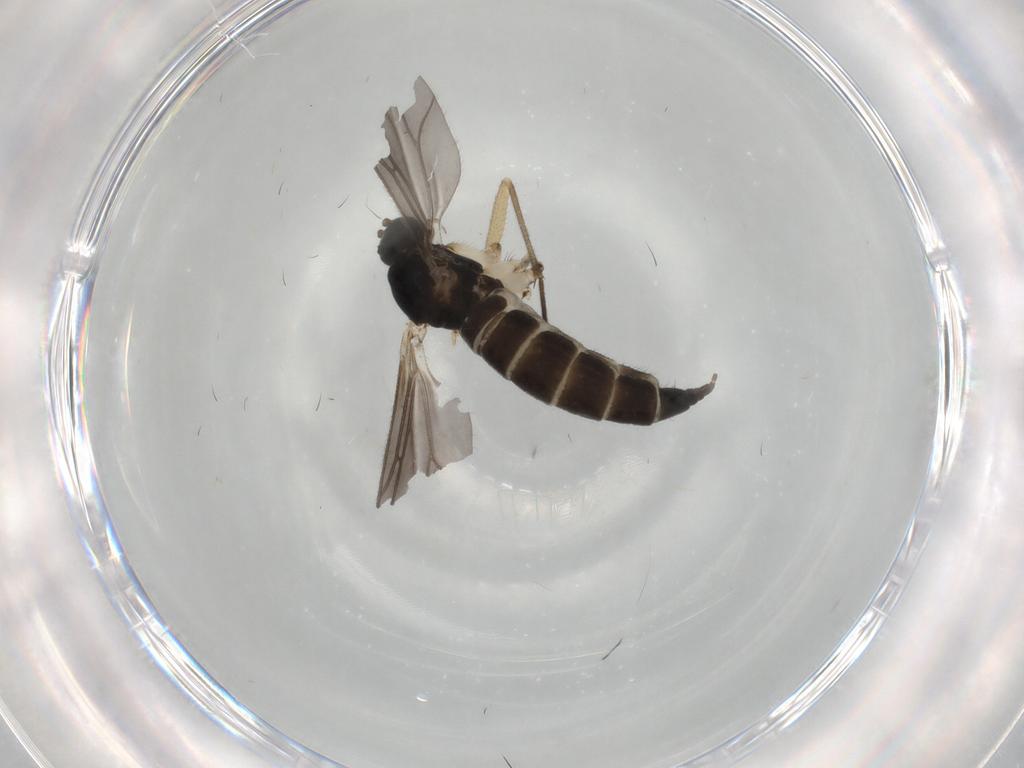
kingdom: Animalia
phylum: Arthropoda
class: Insecta
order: Diptera
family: Sciaridae
